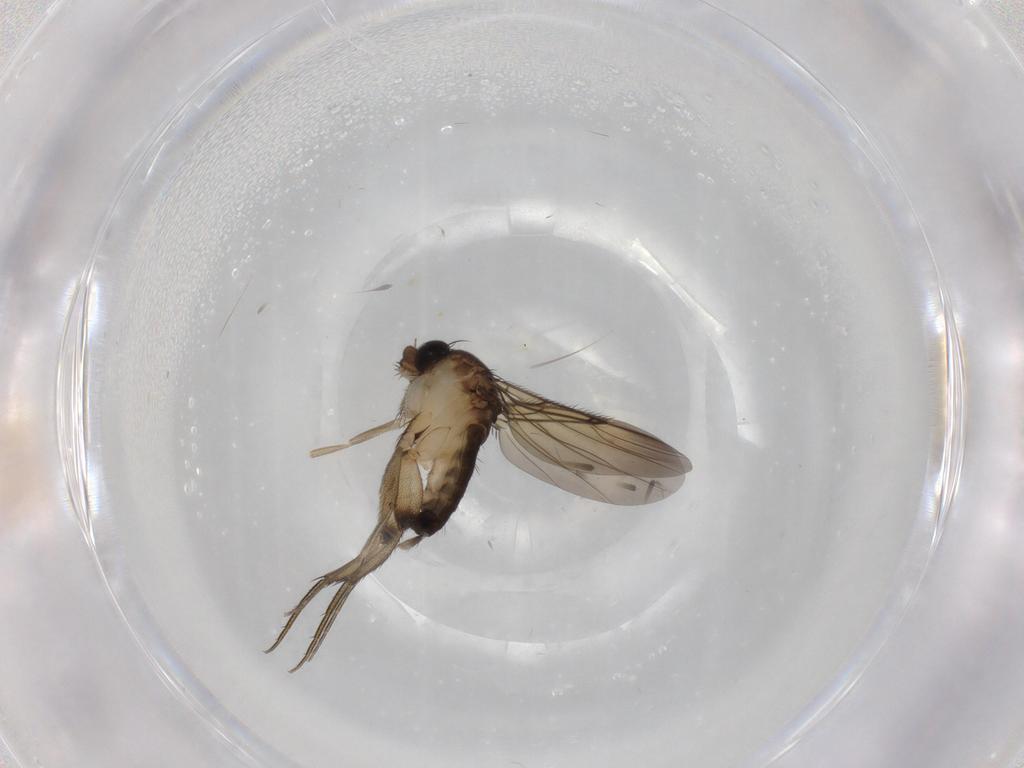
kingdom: Animalia
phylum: Arthropoda
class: Insecta
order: Diptera
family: Phoridae
